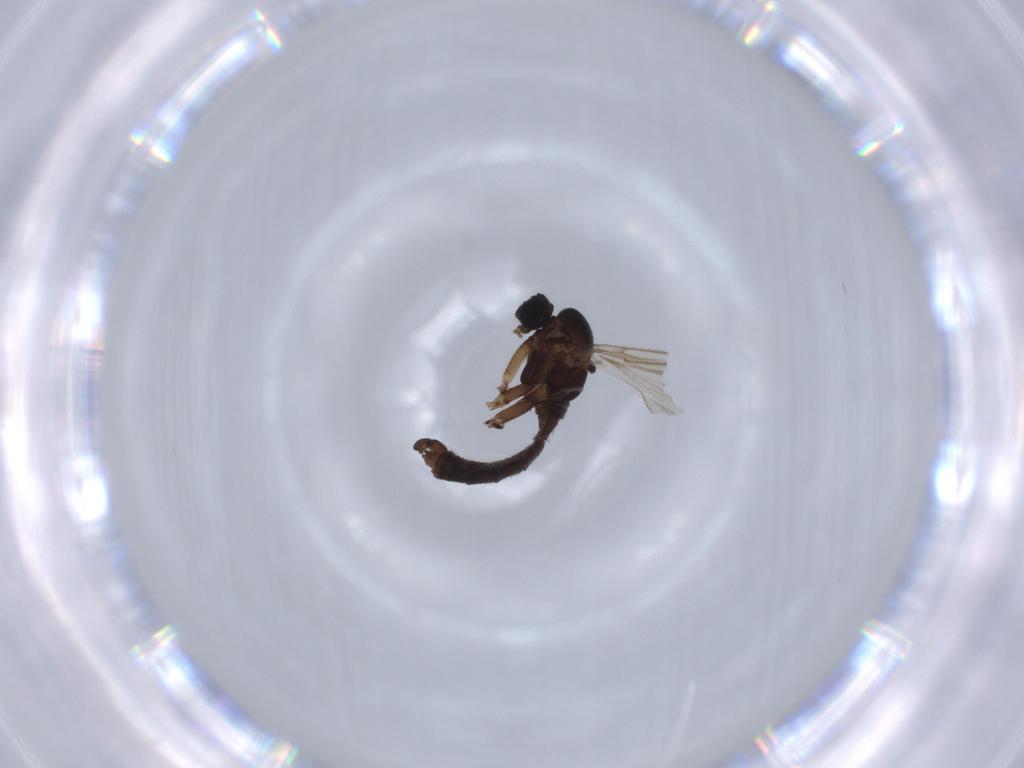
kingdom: Animalia
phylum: Arthropoda
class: Insecta
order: Diptera
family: Sciaridae
